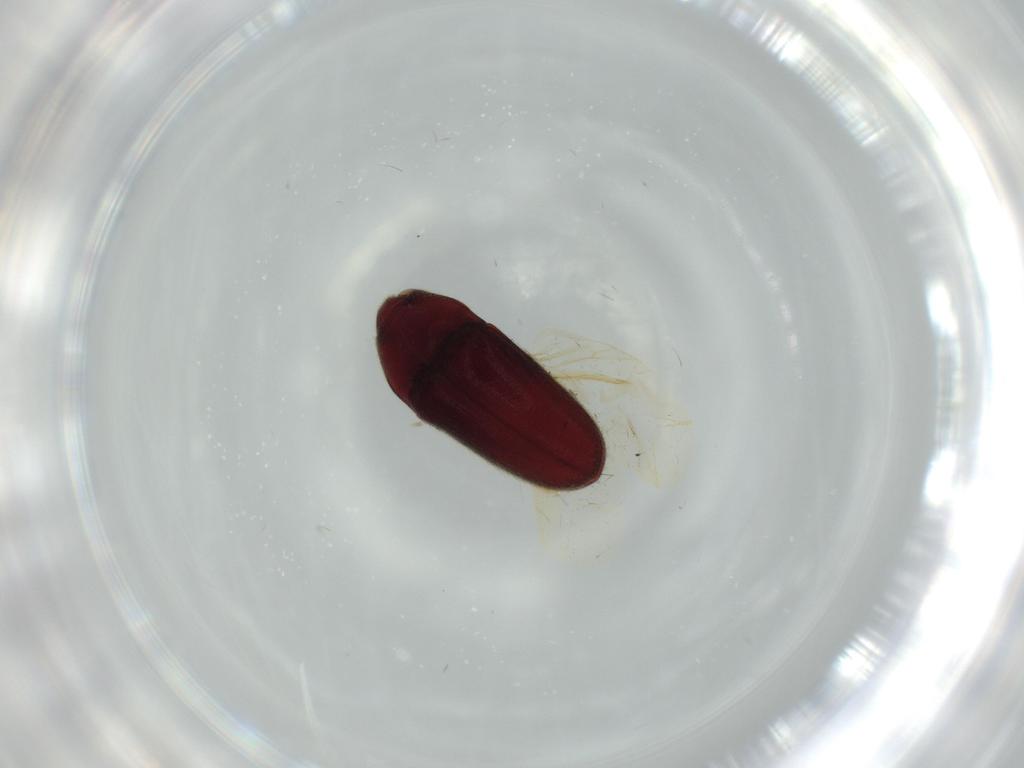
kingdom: Animalia
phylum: Arthropoda
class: Insecta
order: Coleoptera
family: Throscidae
